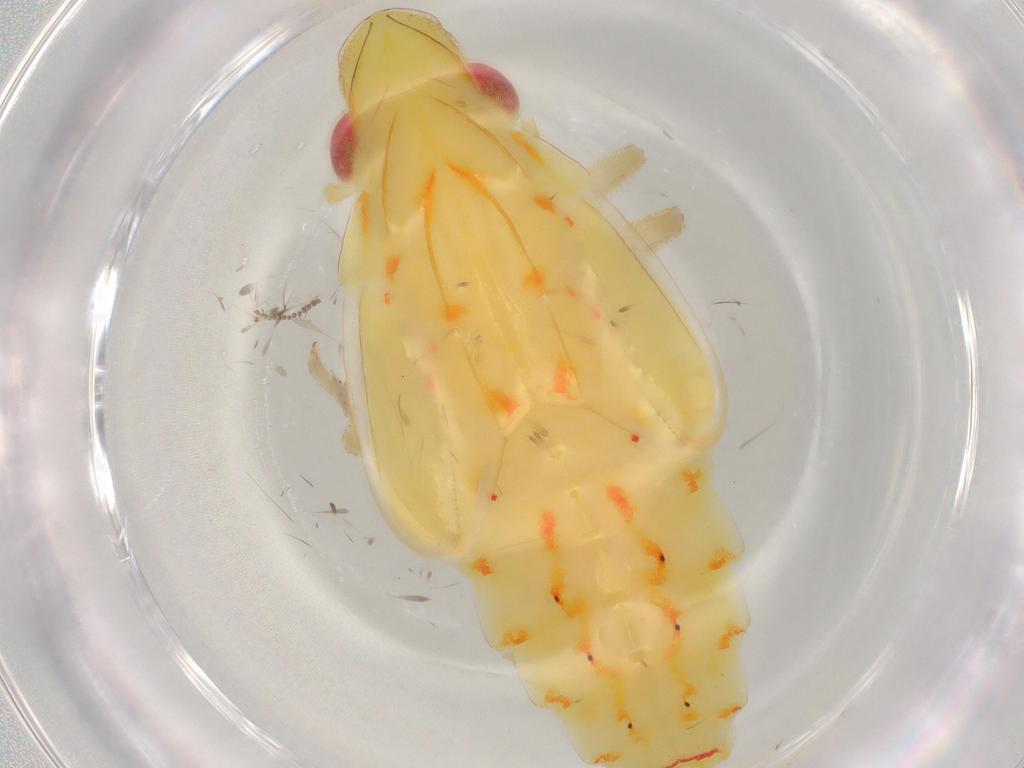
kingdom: Animalia
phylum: Arthropoda
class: Insecta
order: Hemiptera
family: Tropiduchidae
